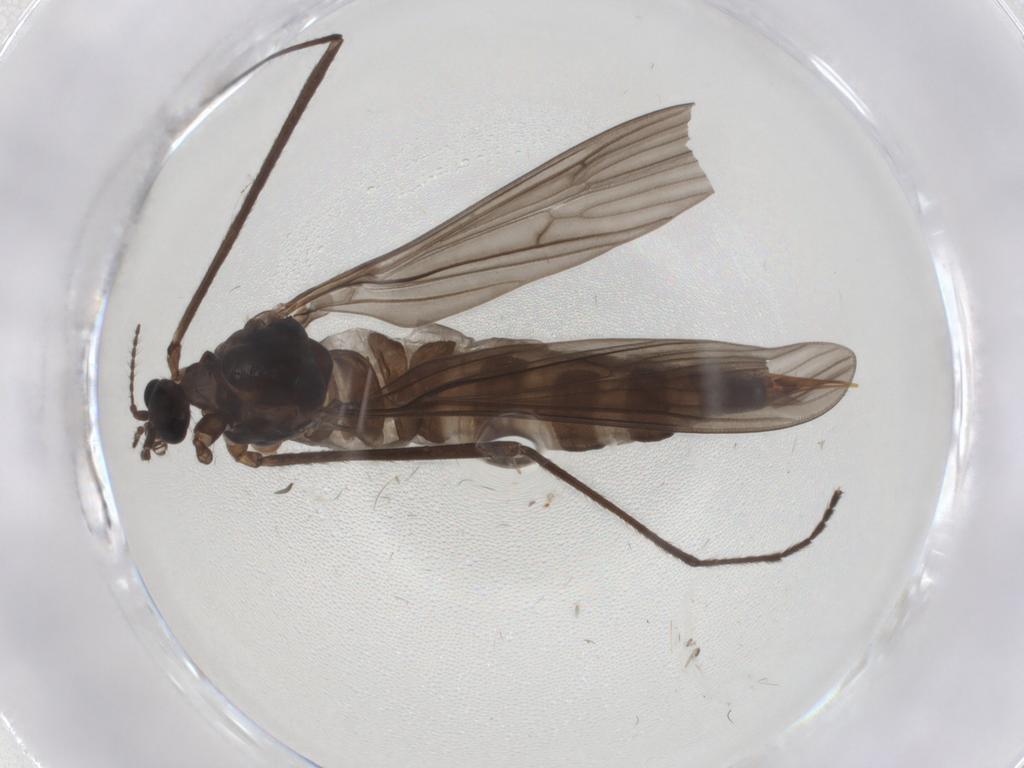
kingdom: Animalia
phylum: Arthropoda
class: Insecta
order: Diptera
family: Limoniidae
